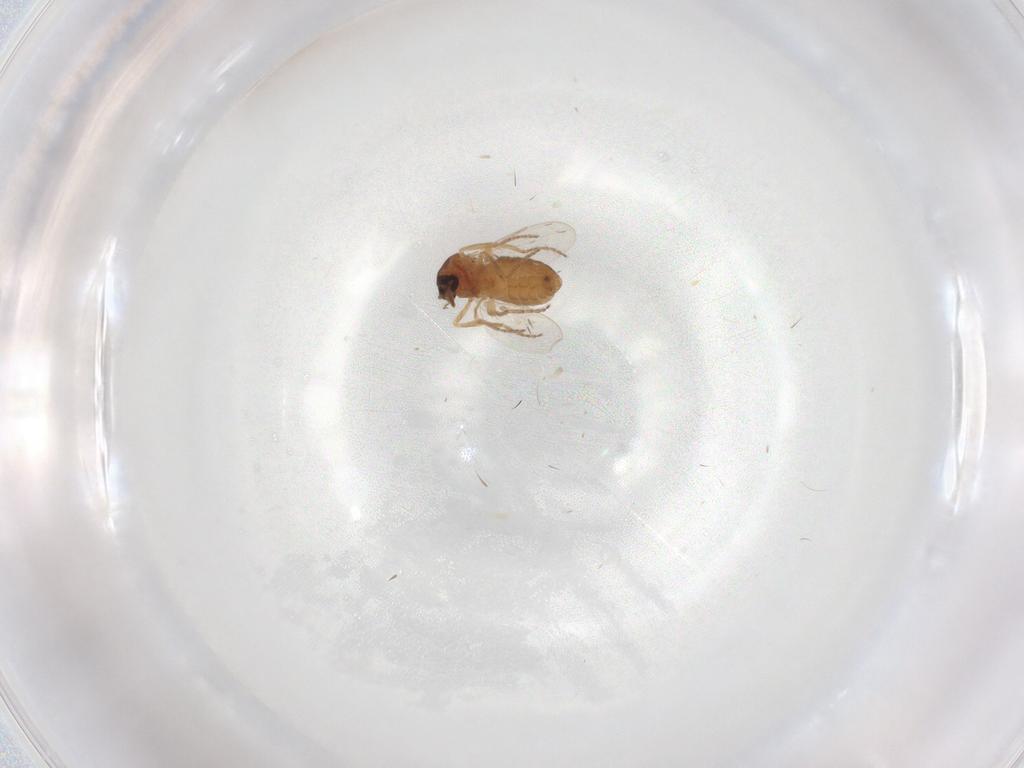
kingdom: Animalia
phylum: Arthropoda
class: Insecta
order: Diptera
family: Ceratopogonidae
